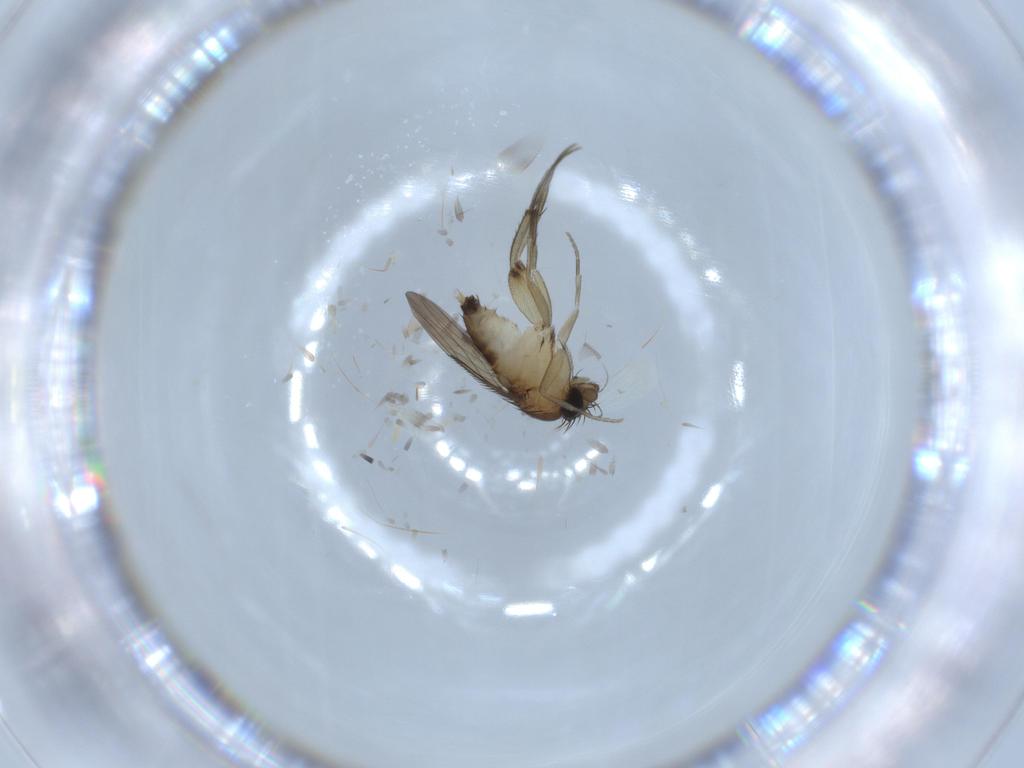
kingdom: Animalia
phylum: Arthropoda
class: Insecta
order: Diptera
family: Phoridae
